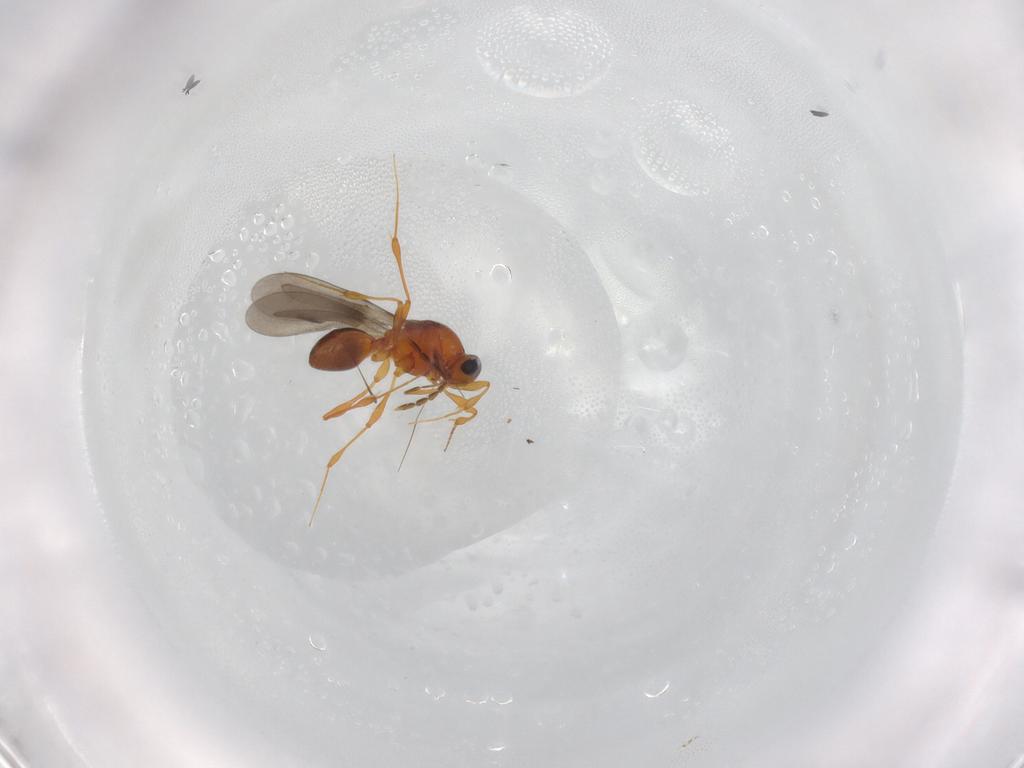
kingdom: Animalia
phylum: Arthropoda
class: Insecta
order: Hymenoptera
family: Platygastridae
